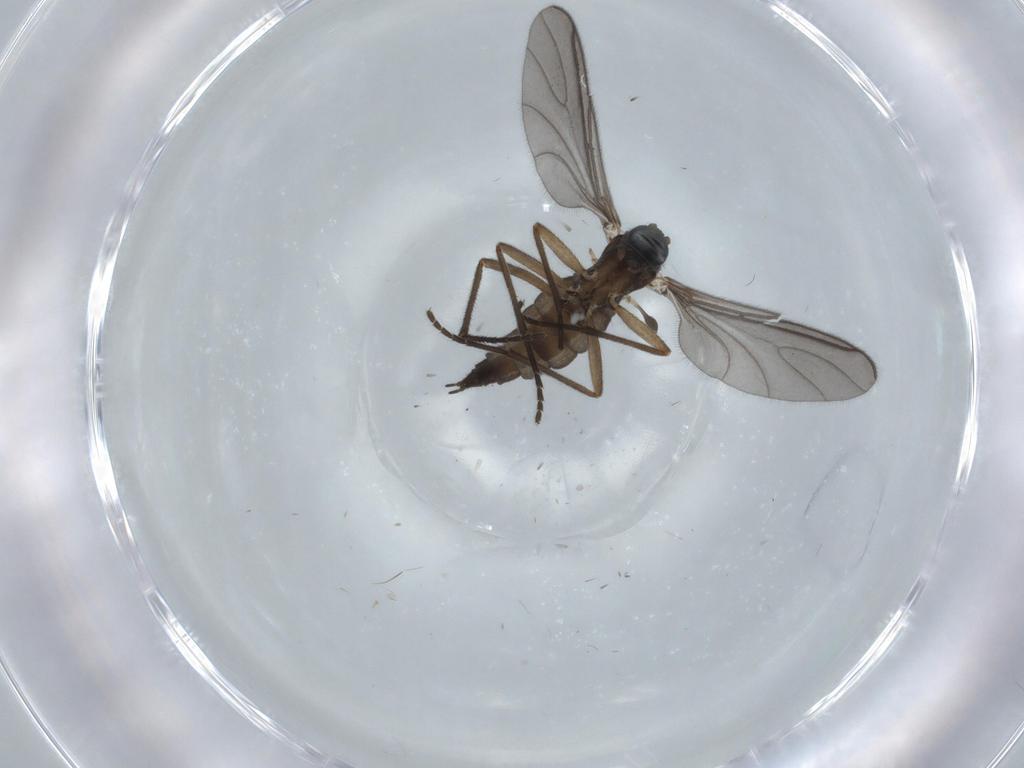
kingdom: Animalia
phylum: Arthropoda
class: Insecta
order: Diptera
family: Sciaridae
